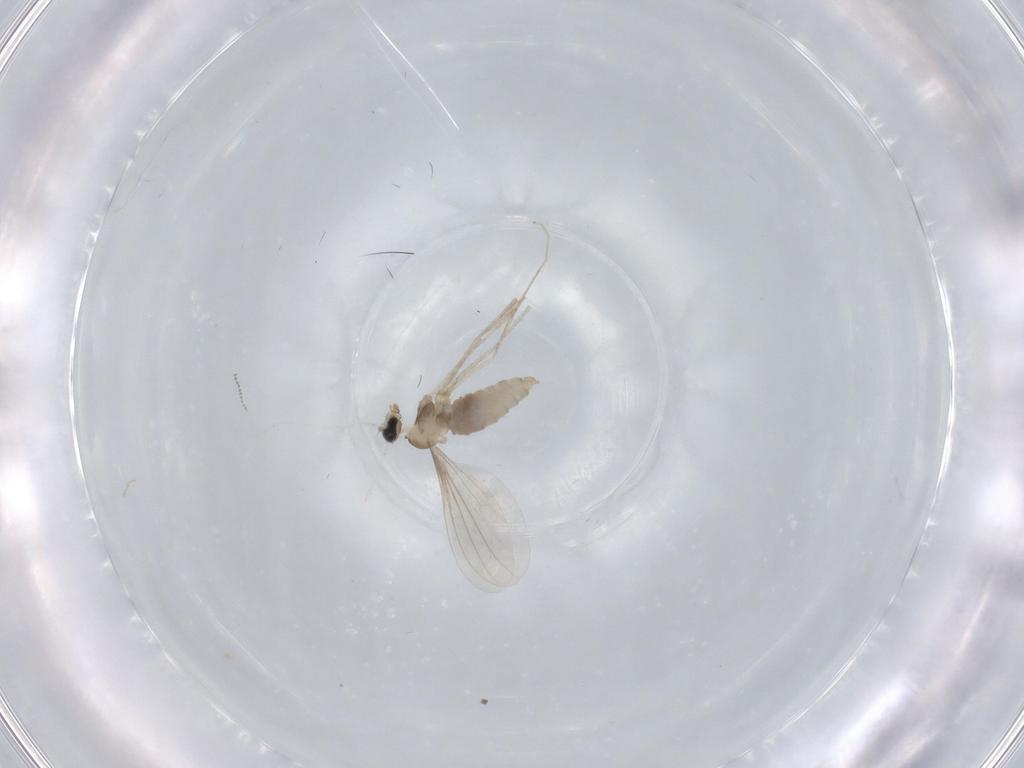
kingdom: Animalia
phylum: Arthropoda
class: Insecta
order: Diptera
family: Cecidomyiidae
